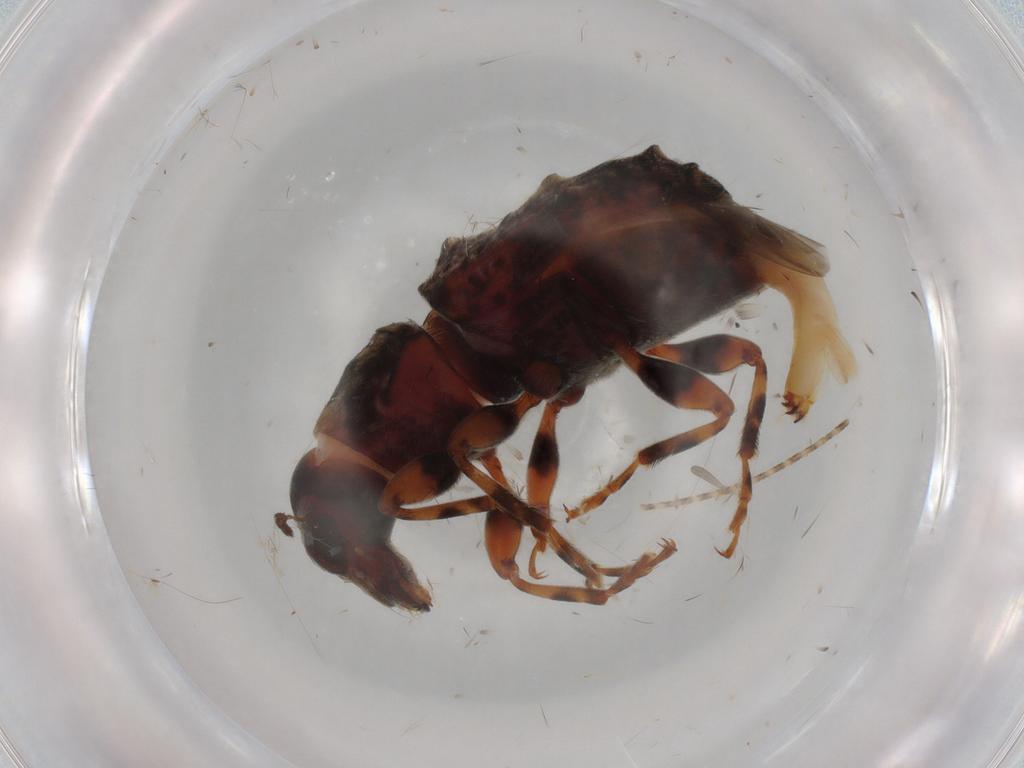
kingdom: Animalia
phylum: Arthropoda
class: Insecta
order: Coleoptera
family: Anthribidae
